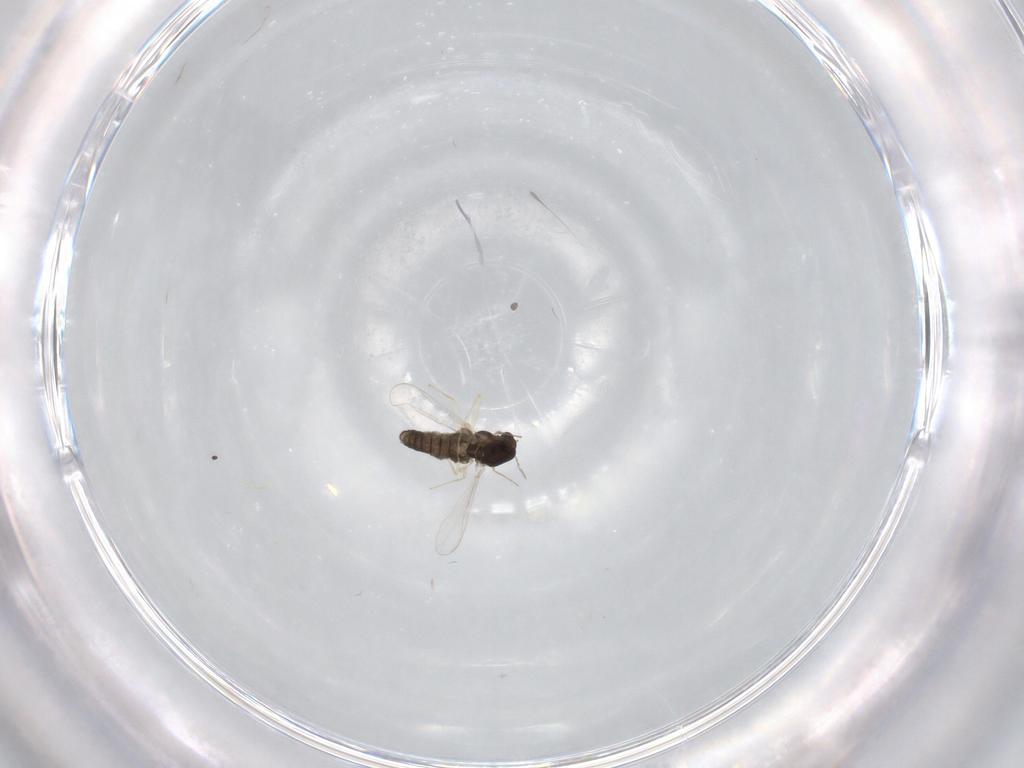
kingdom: Animalia
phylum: Arthropoda
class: Insecta
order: Diptera
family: Chironomidae
